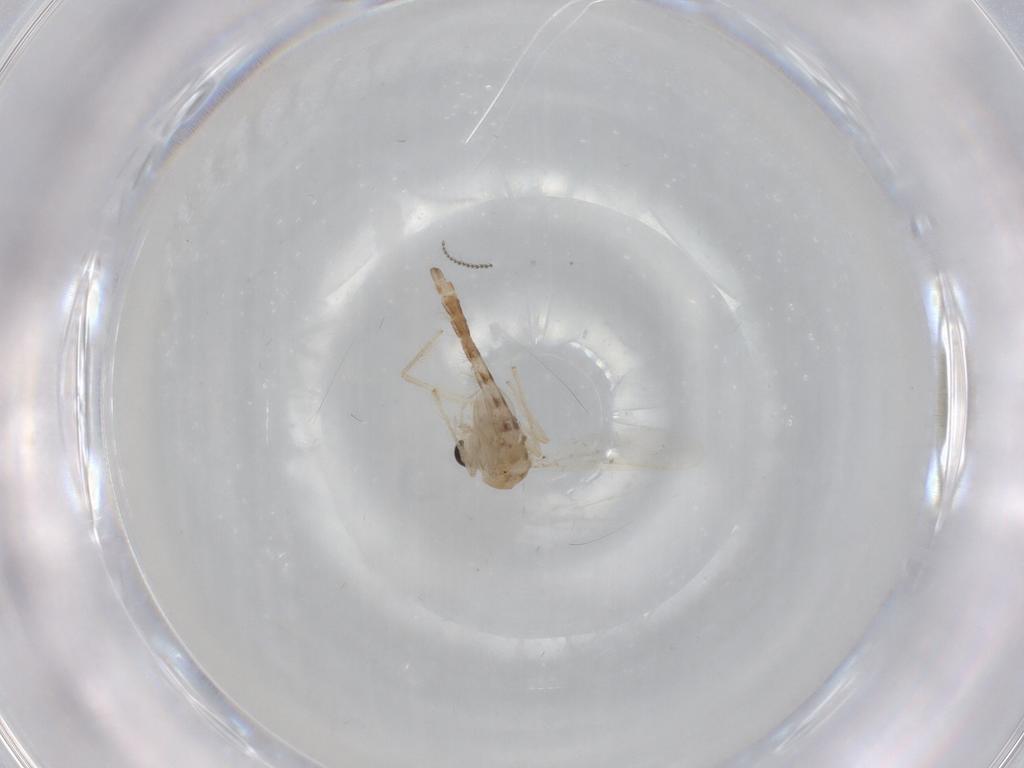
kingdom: Animalia
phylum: Arthropoda
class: Insecta
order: Diptera
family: Chironomidae
